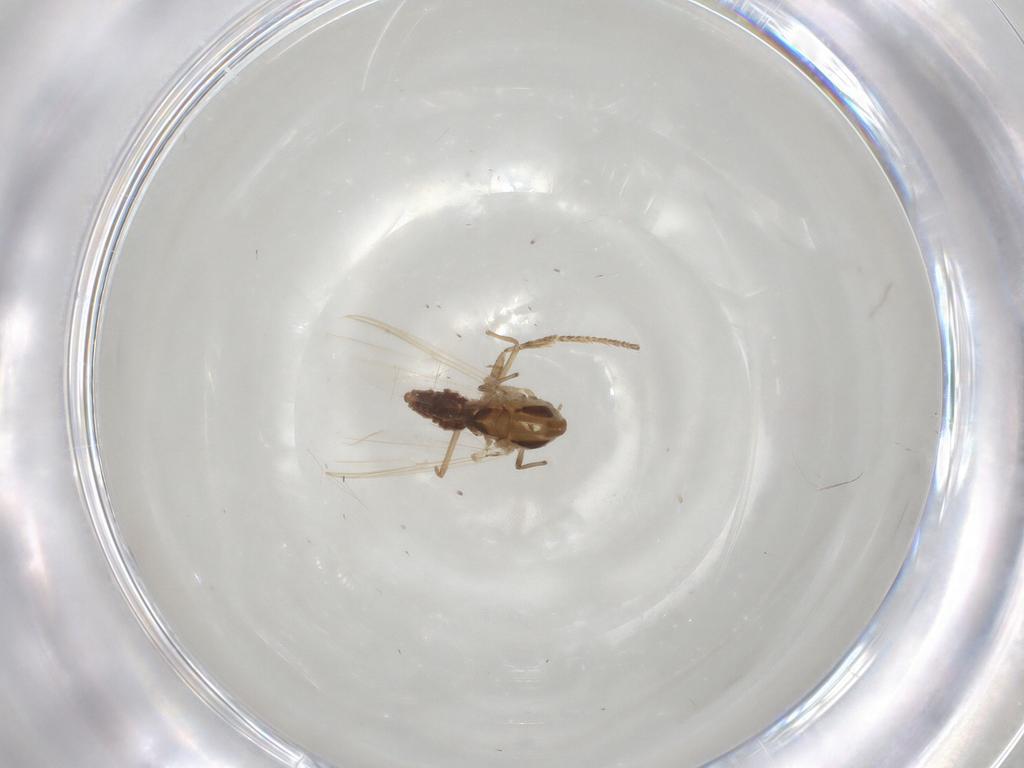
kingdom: Animalia
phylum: Arthropoda
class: Insecta
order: Diptera
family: Chironomidae
